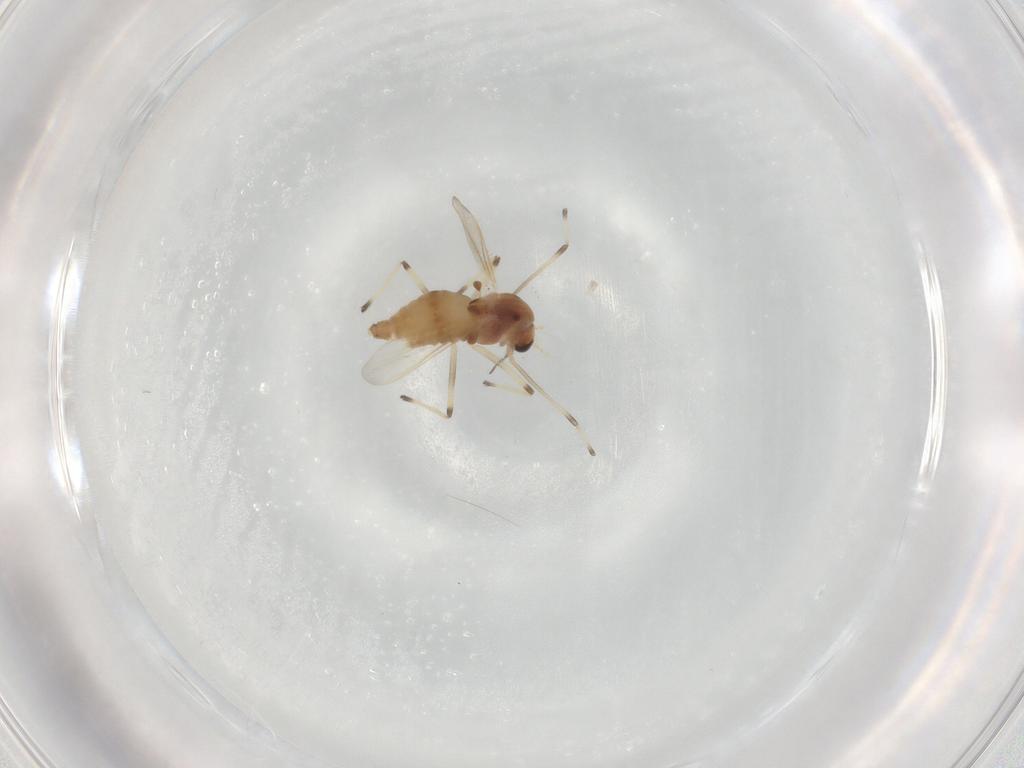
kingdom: Animalia
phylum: Arthropoda
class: Insecta
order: Diptera
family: Chironomidae
